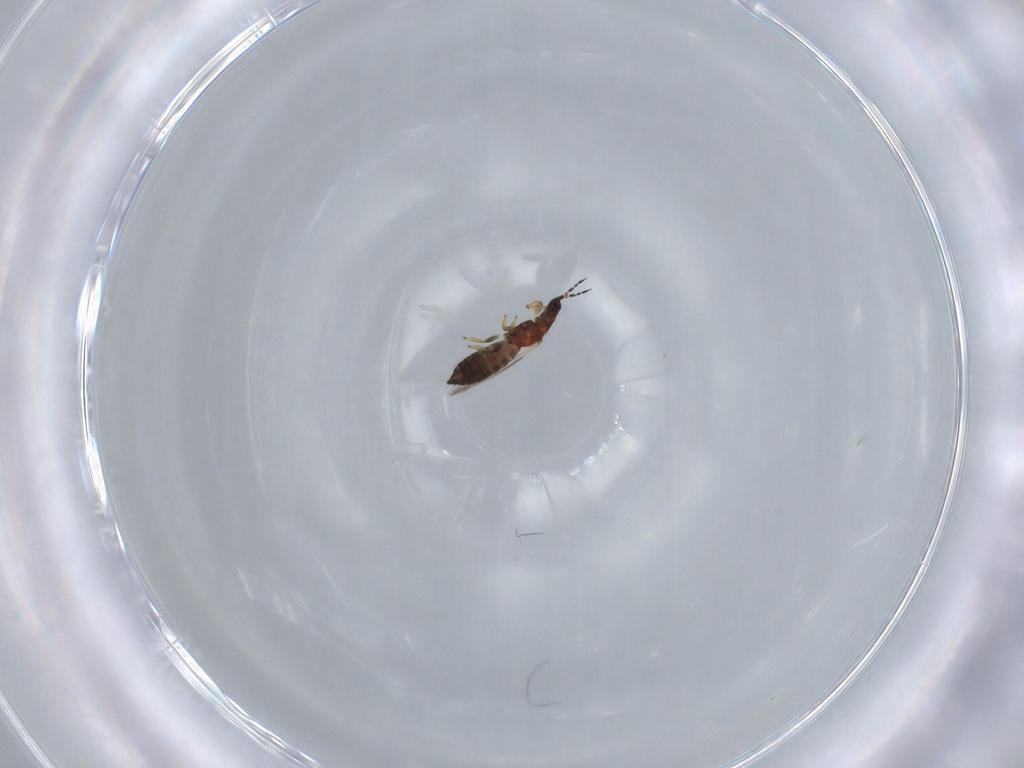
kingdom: Animalia
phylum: Arthropoda
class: Insecta
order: Thysanoptera
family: Thripidae
